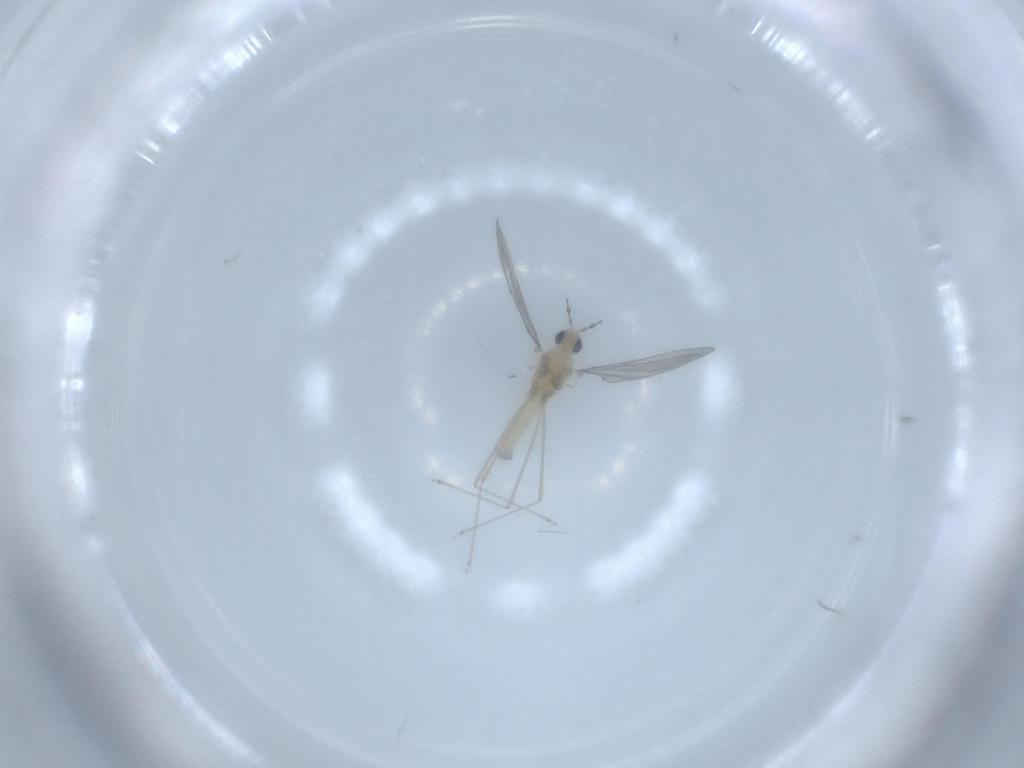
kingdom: Animalia
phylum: Arthropoda
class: Insecta
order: Diptera
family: Cecidomyiidae
